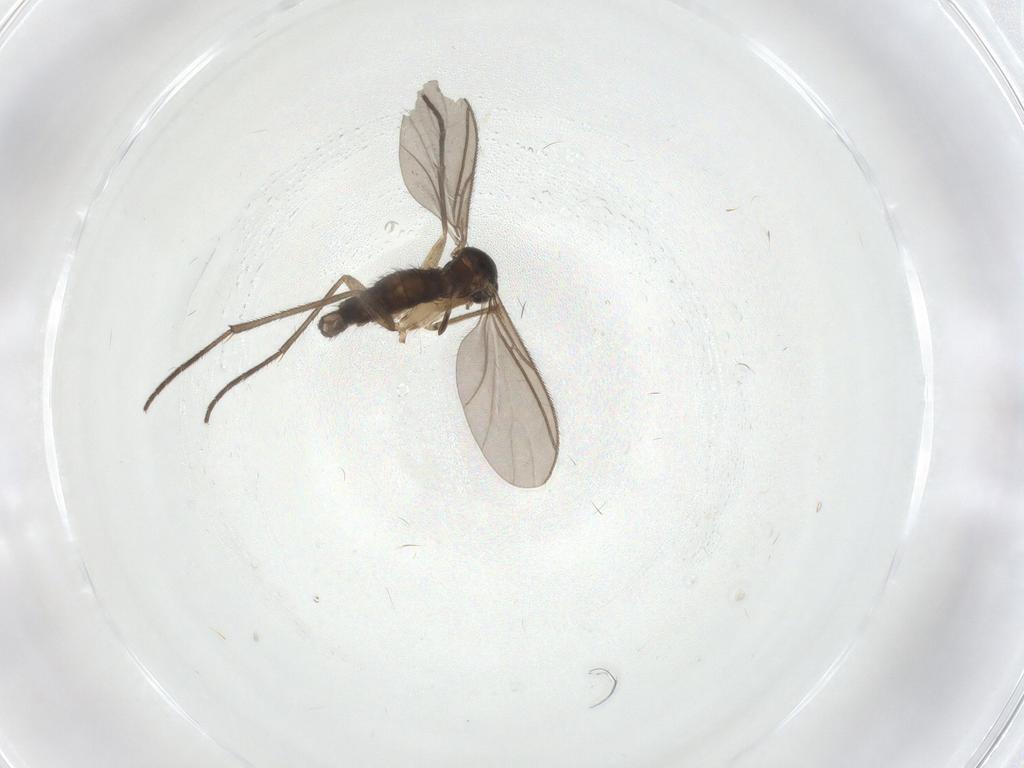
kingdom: Animalia
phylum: Arthropoda
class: Insecta
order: Diptera
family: Sciaridae
